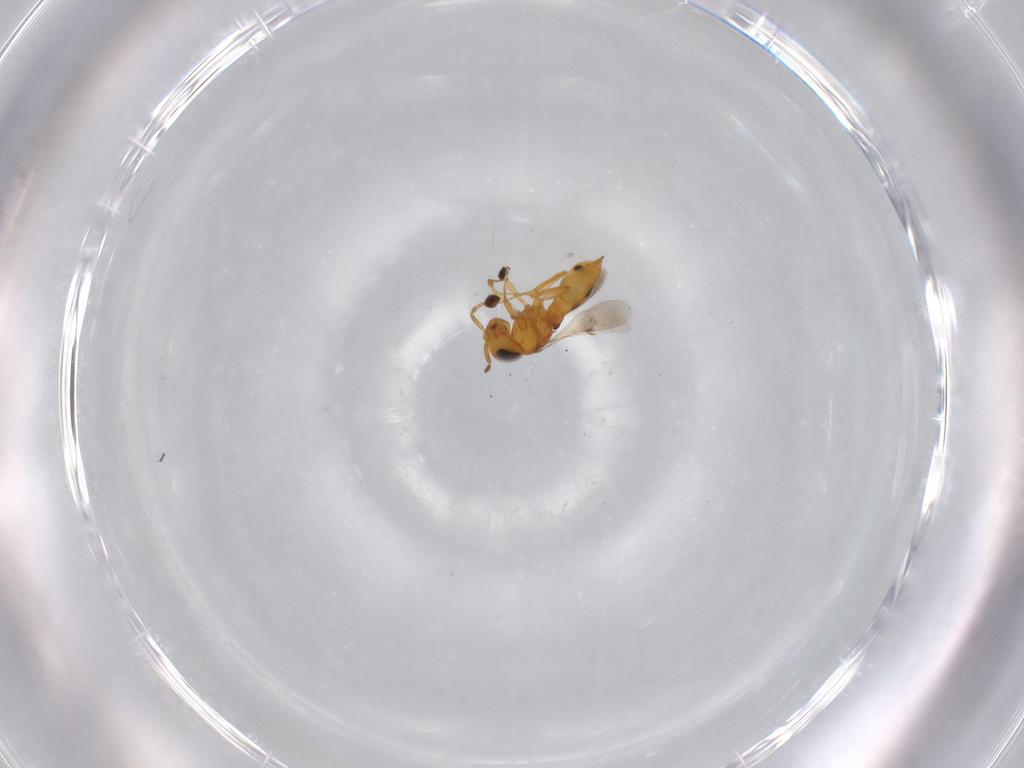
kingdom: Animalia
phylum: Arthropoda
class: Insecta
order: Hymenoptera
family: Scelionidae
